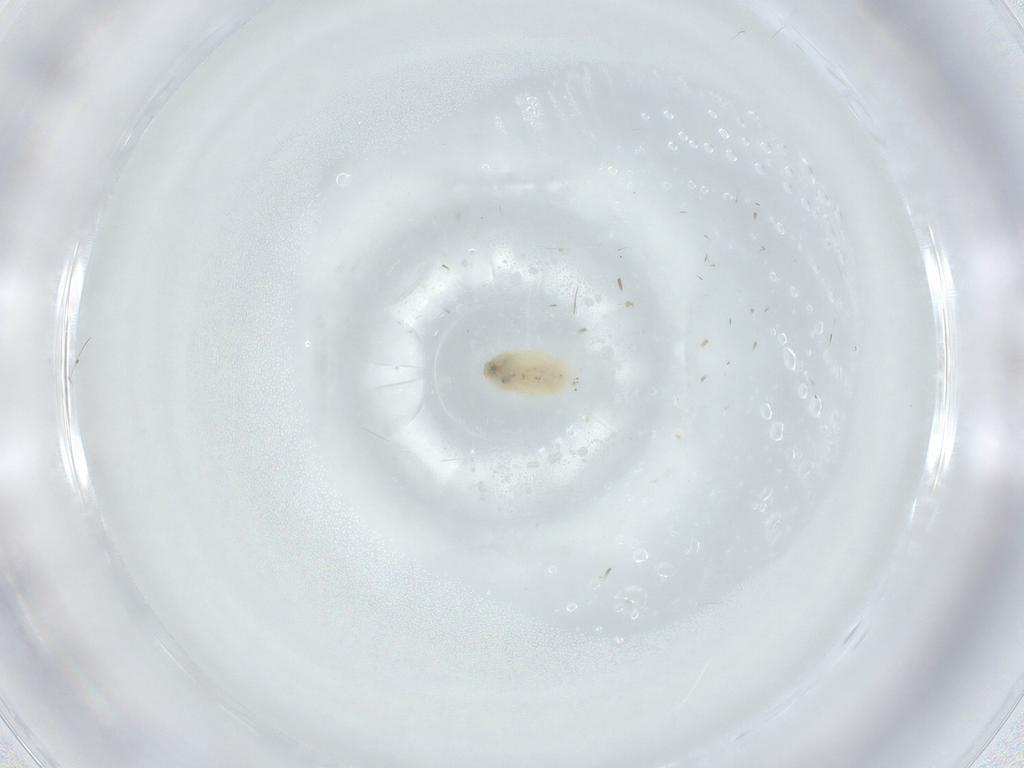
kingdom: Animalia
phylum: Arthropoda
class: Insecta
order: Psocodea
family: Lepidopsocidae
